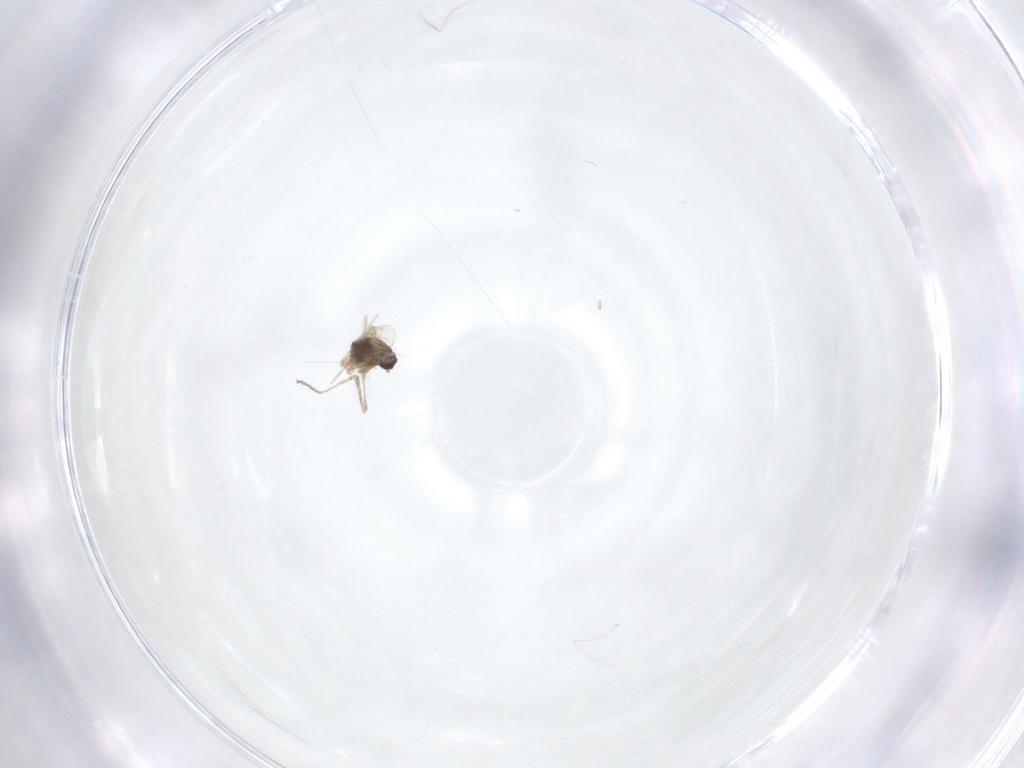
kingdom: Animalia
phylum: Arthropoda
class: Insecta
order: Diptera
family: Cecidomyiidae
